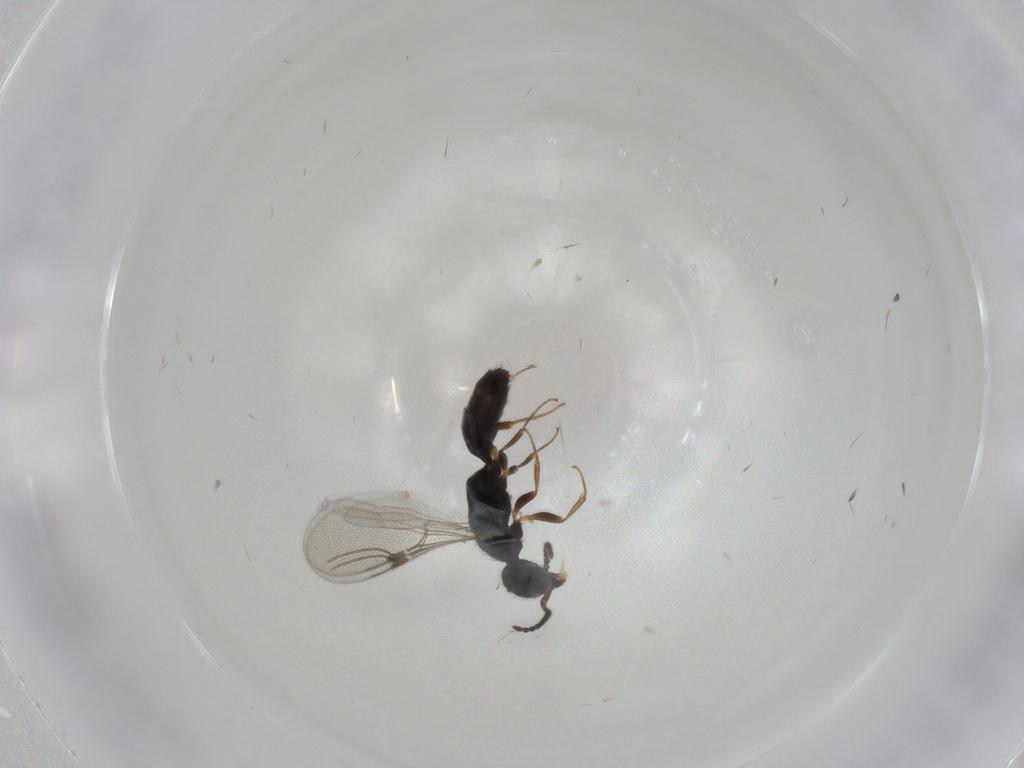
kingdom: Animalia
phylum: Arthropoda
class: Insecta
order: Hymenoptera
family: Bethylidae
